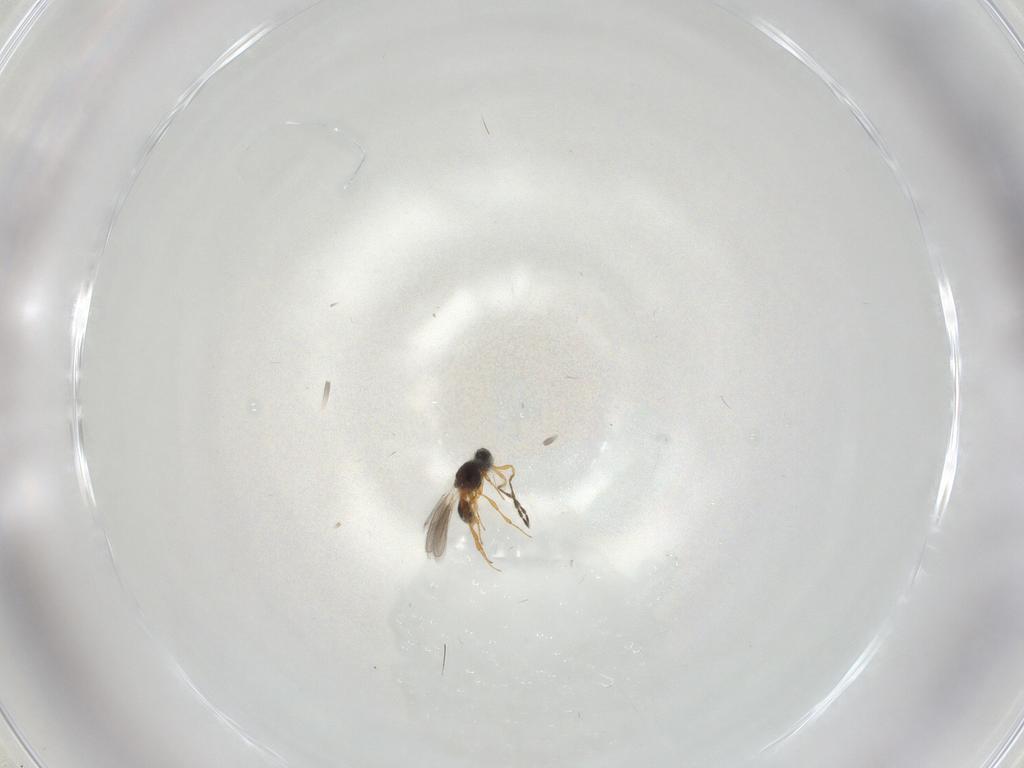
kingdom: Animalia
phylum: Arthropoda
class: Insecta
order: Hymenoptera
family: Platygastridae
